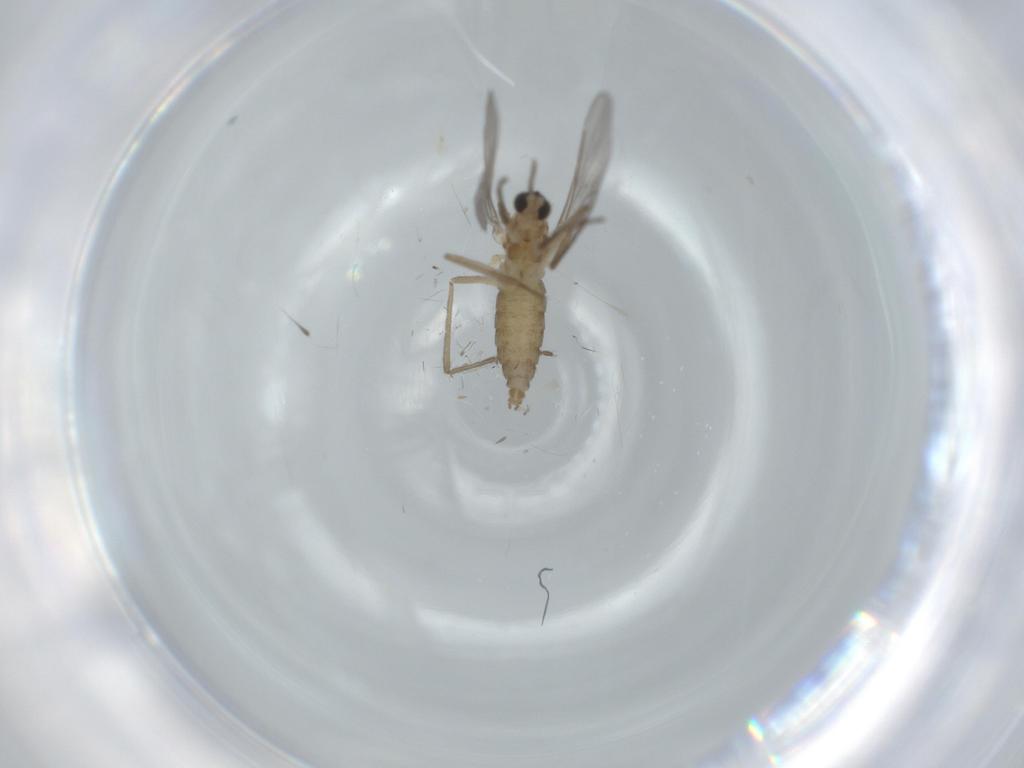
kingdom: Animalia
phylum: Arthropoda
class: Insecta
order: Diptera
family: Cecidomyiidae
